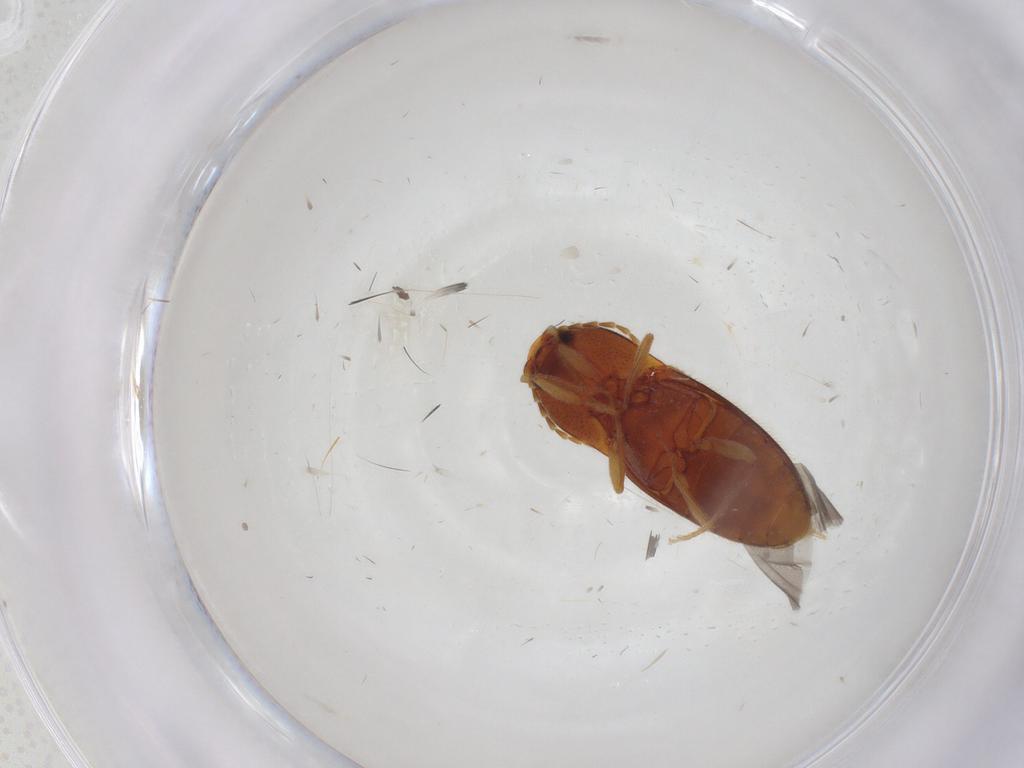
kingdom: Animalia
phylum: Arthropoda
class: Insecta
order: Coleoptera
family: Elateridae
